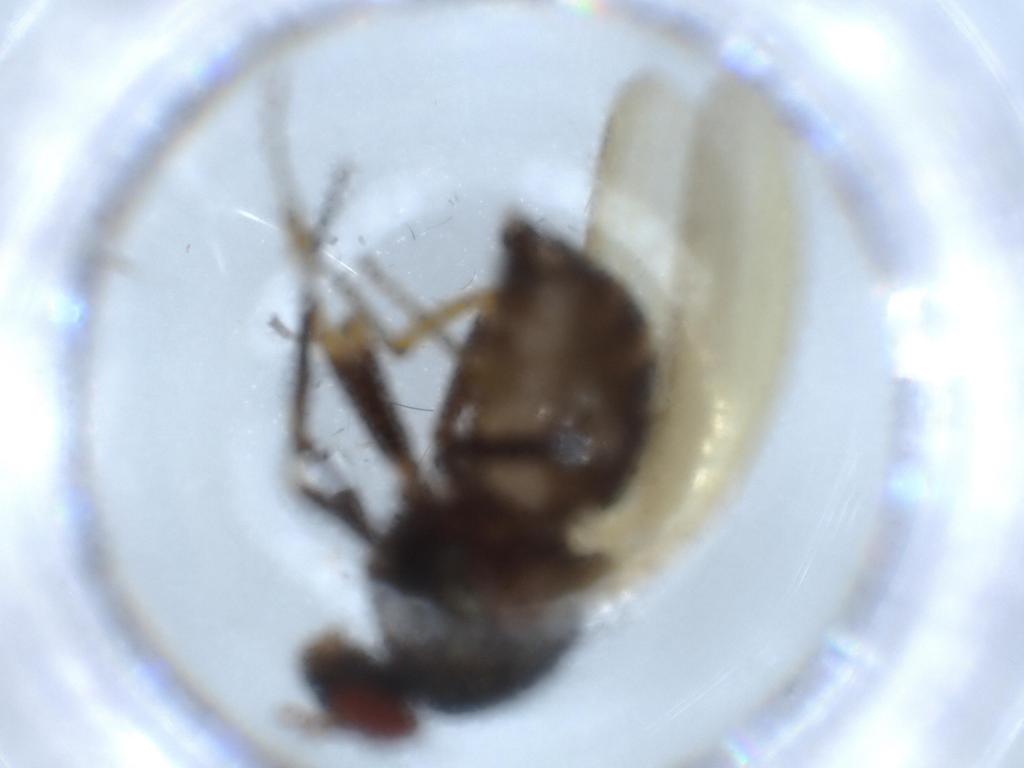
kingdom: Animalia
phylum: Arthropoda
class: Insecta
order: Diptera
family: Lauxaniidae
